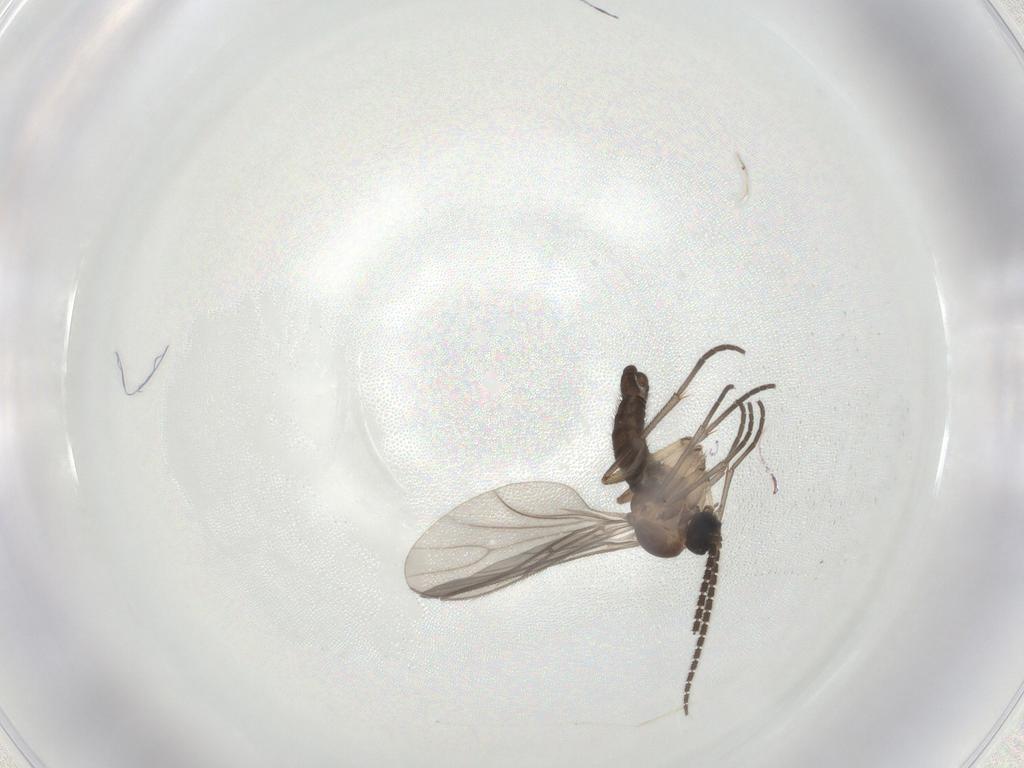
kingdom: Animalia
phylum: Arthropoda
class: Insecta
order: Diptera
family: Sciaridae
